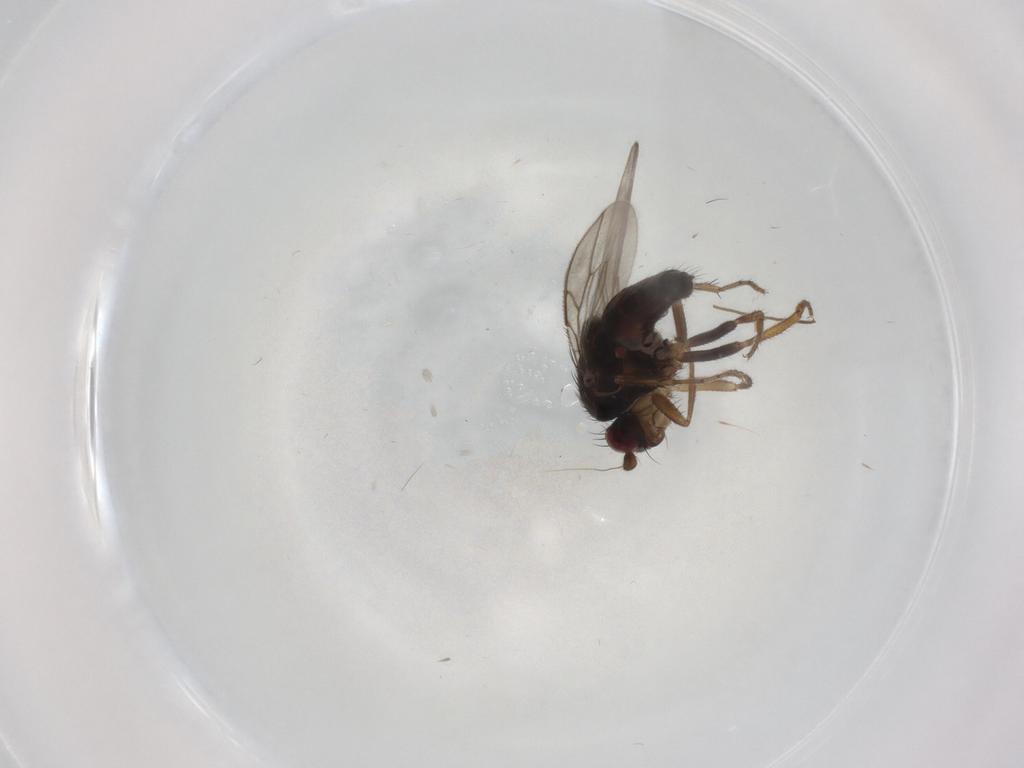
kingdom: Animalia
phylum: Arthropoda
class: Insecta
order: Diptera
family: Sphaeroceridae
